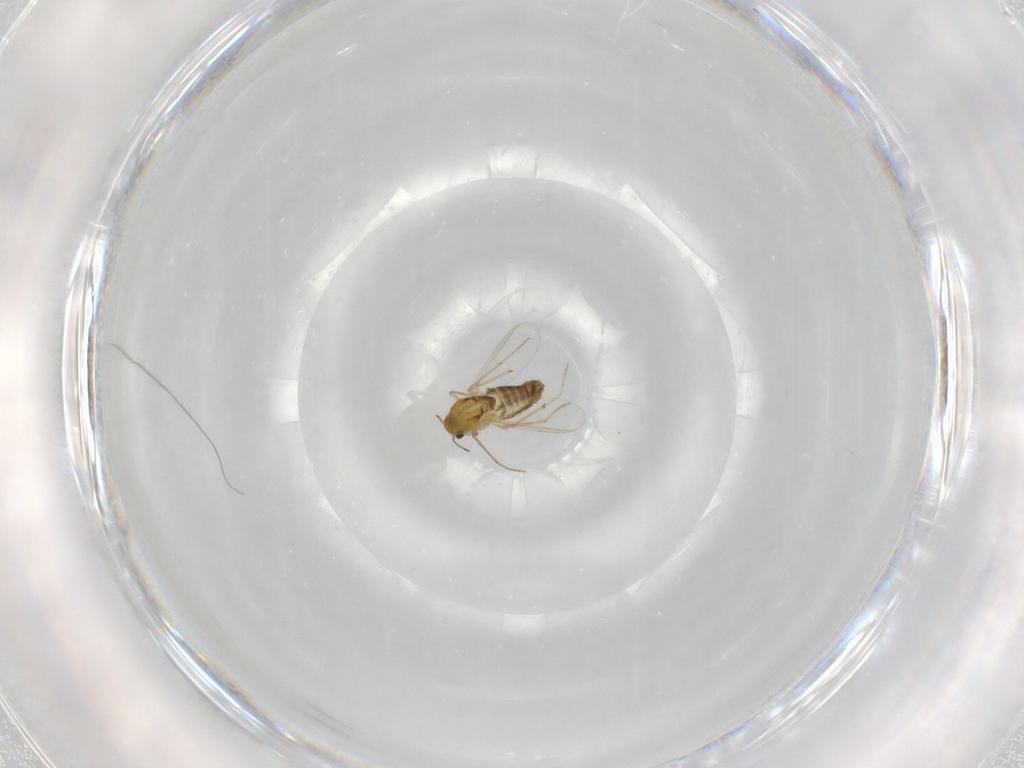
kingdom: Animalia
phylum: Arthropoda
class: Insecta
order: Diptera
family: Chironomidae
